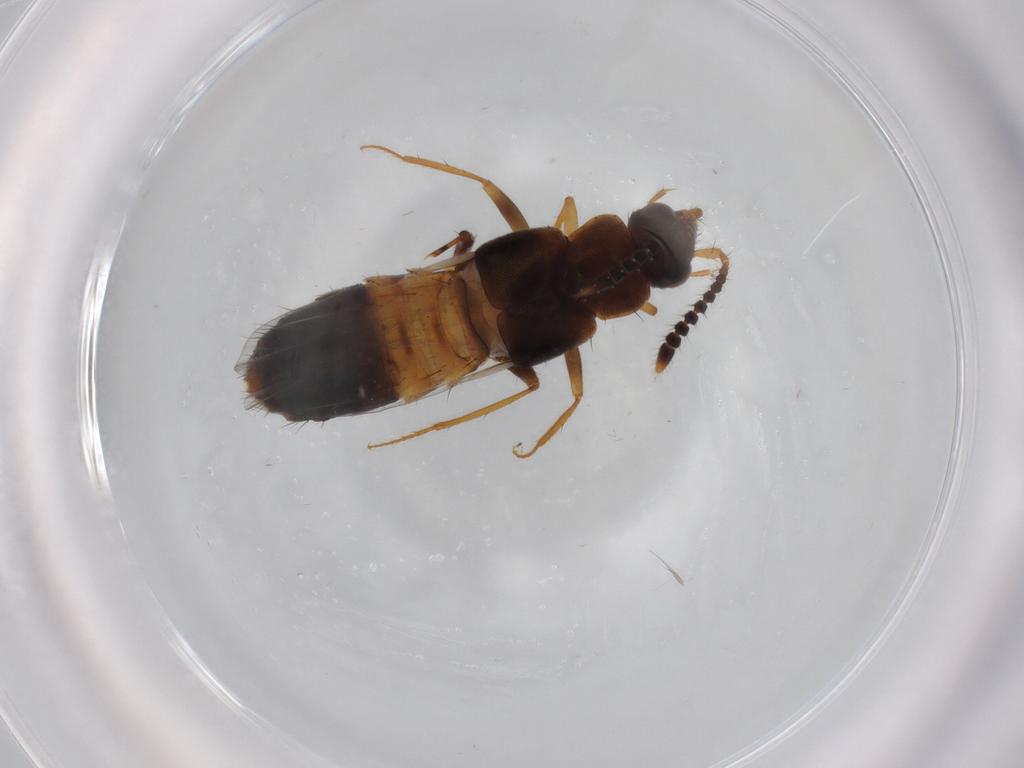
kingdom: Animalia
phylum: Arthropoda
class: Insecta
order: Coleoptera
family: Staphylinidae
